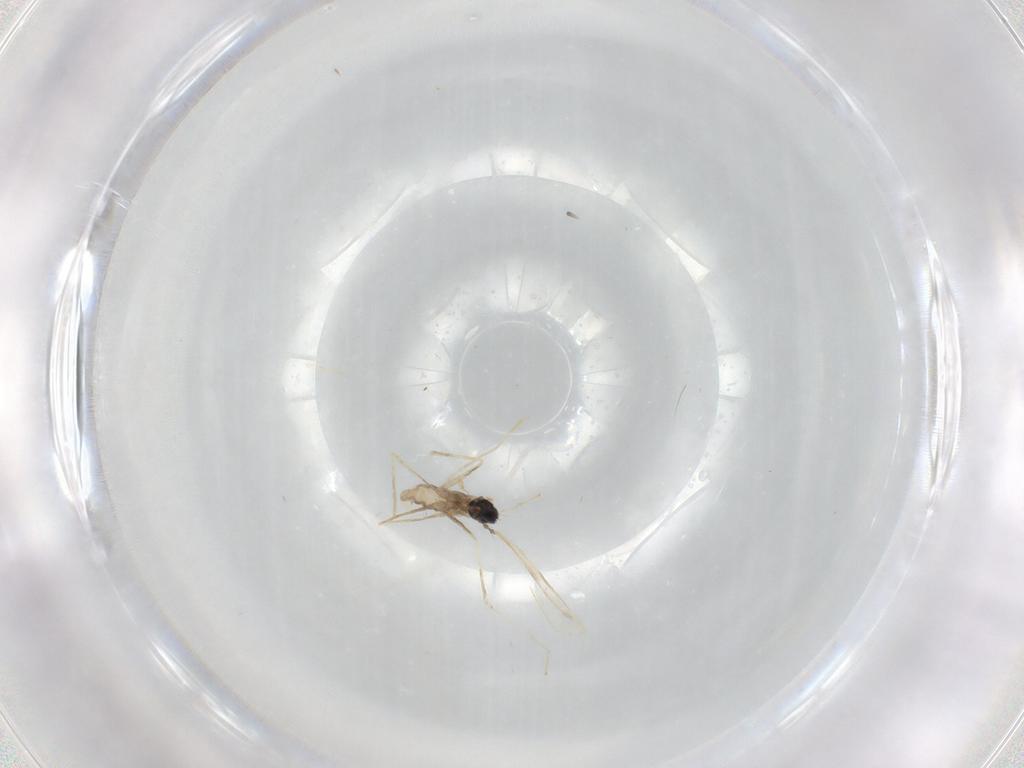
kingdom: Animalia
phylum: Arthropoda
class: Insecta
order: Diptera
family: Cecidomyiidae
